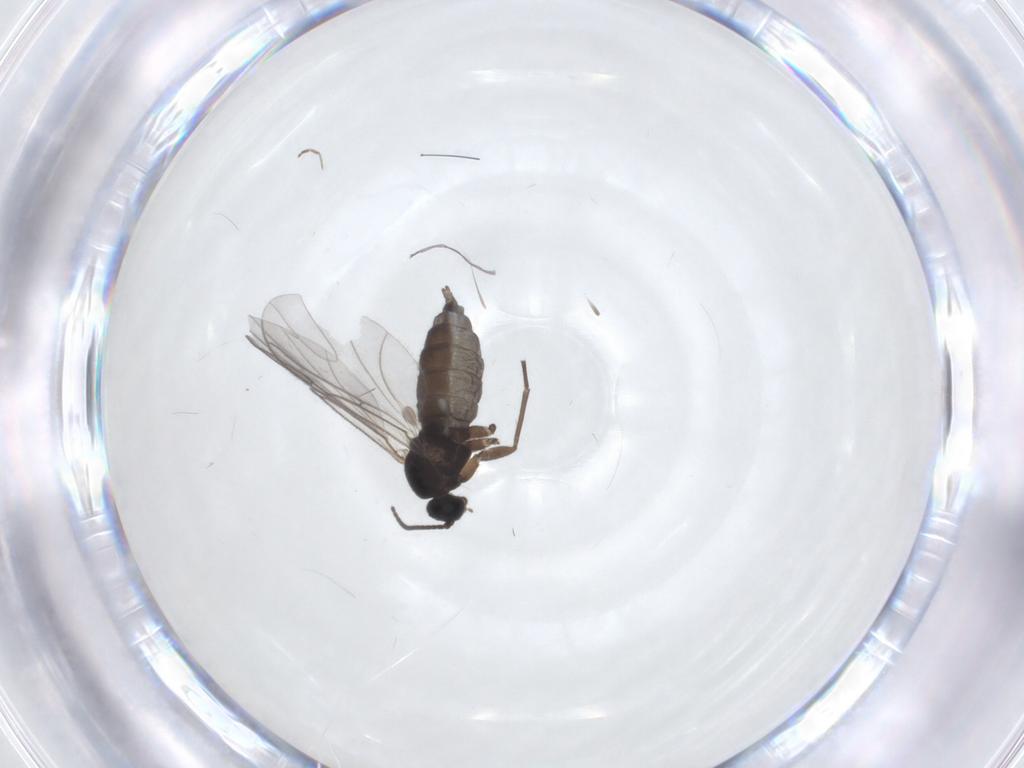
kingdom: Animalia
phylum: Arthropoda
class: Insecta
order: Diptera
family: Sciaridae
